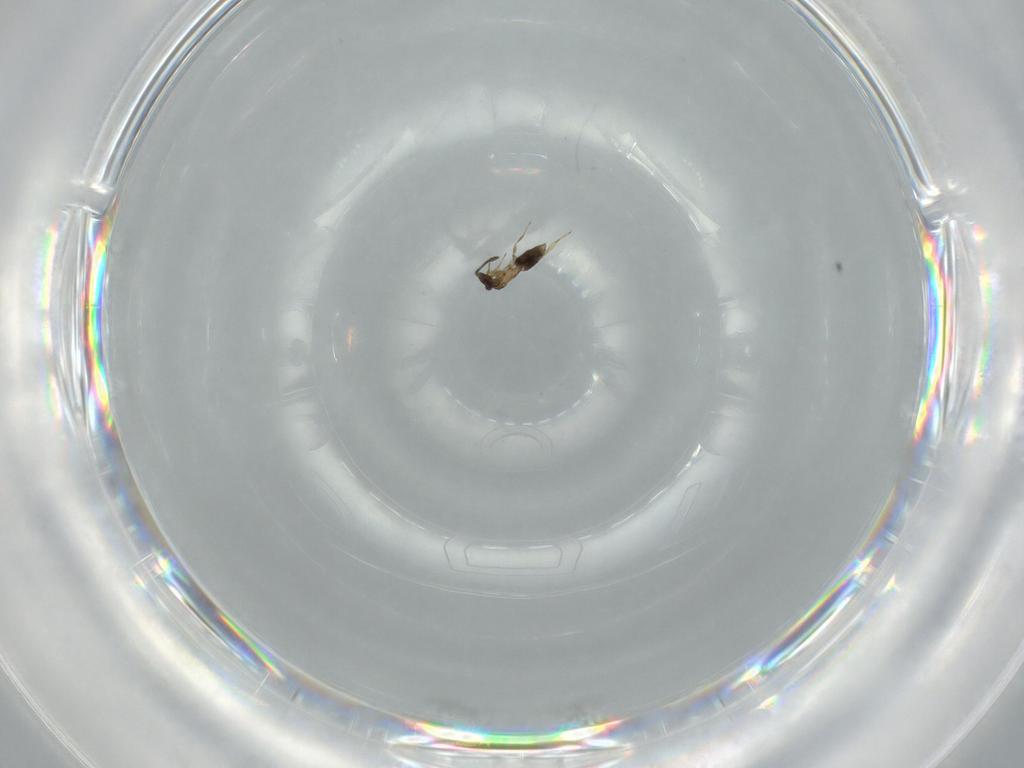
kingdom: Animalia
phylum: Arthropoda
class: Insecta
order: Hymenoptera
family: Mymaridae
